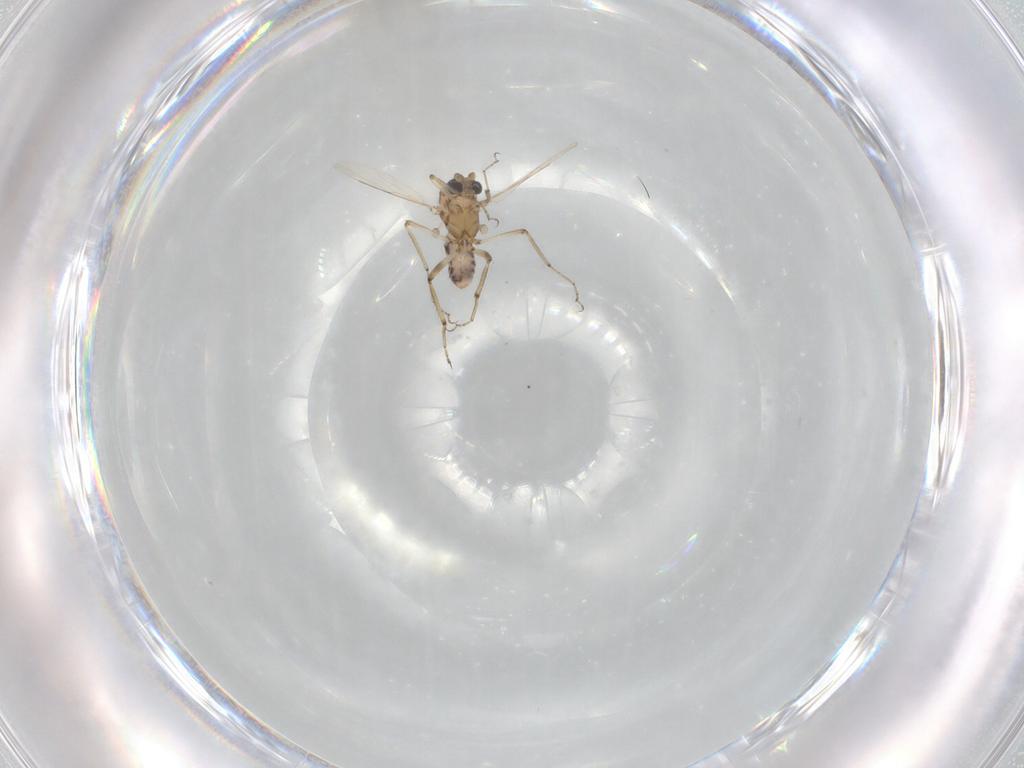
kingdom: Animalia
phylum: Arthropoda
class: Insecta
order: Diptera
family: Ceratopogonidae
